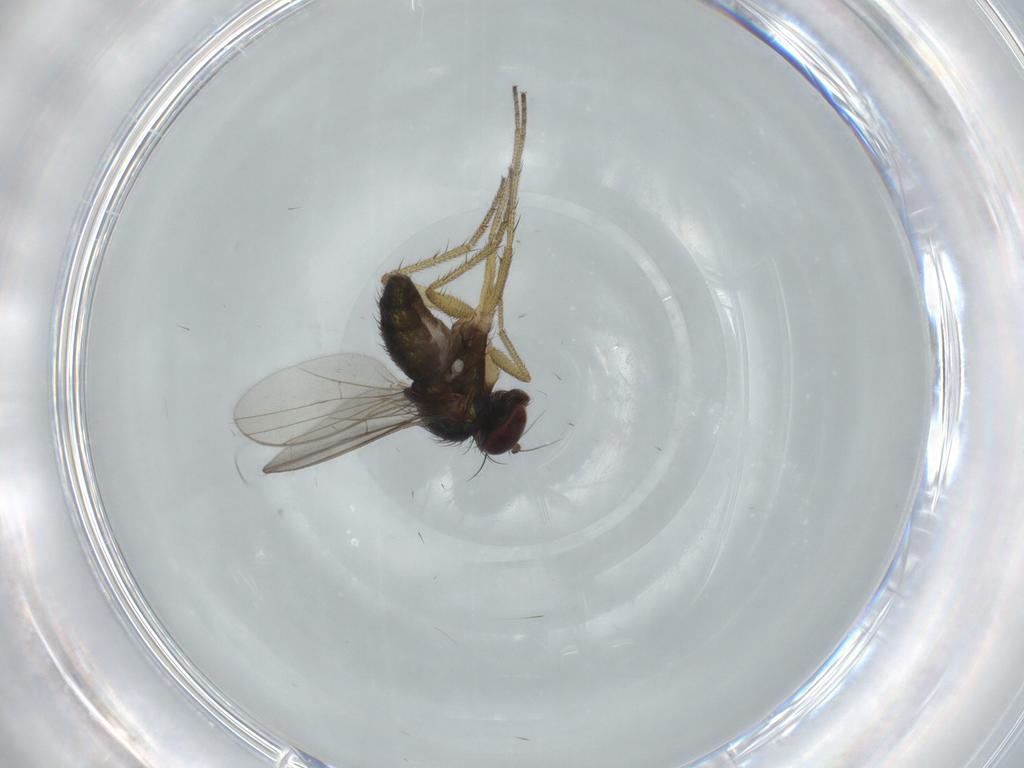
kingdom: Animalia
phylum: Arthropoda
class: Insecta
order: Diptera
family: Dolichopodidae
